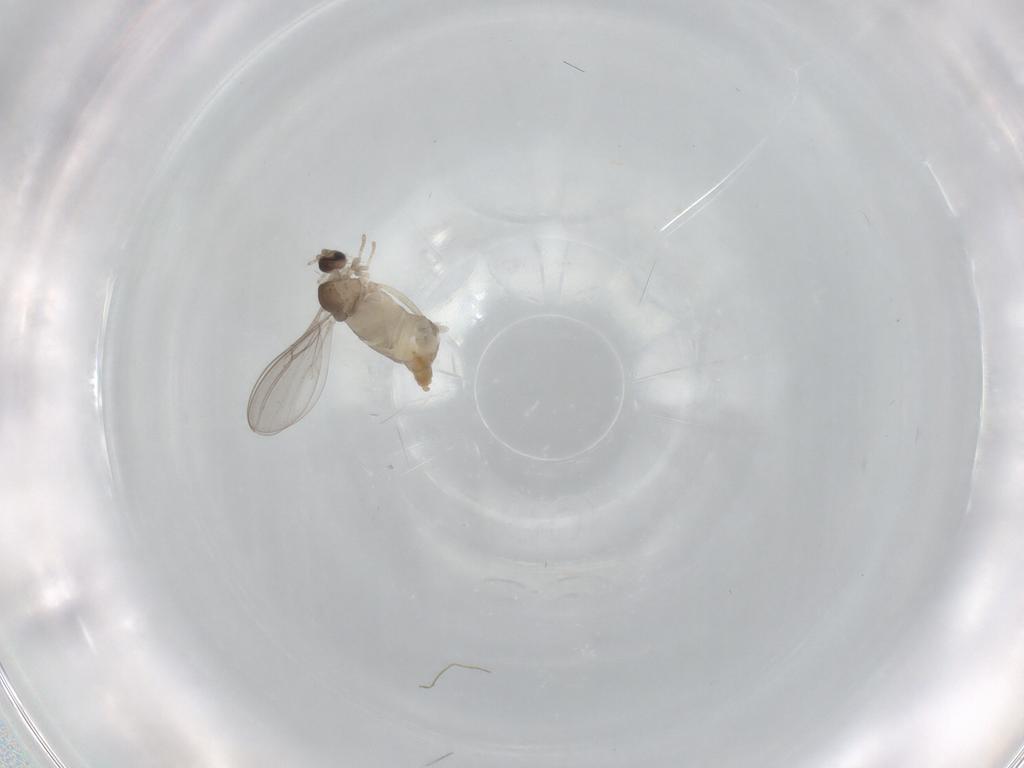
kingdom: Animalia
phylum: Arthropoda
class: Insecta
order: Diptera
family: Cecidomyiidae
